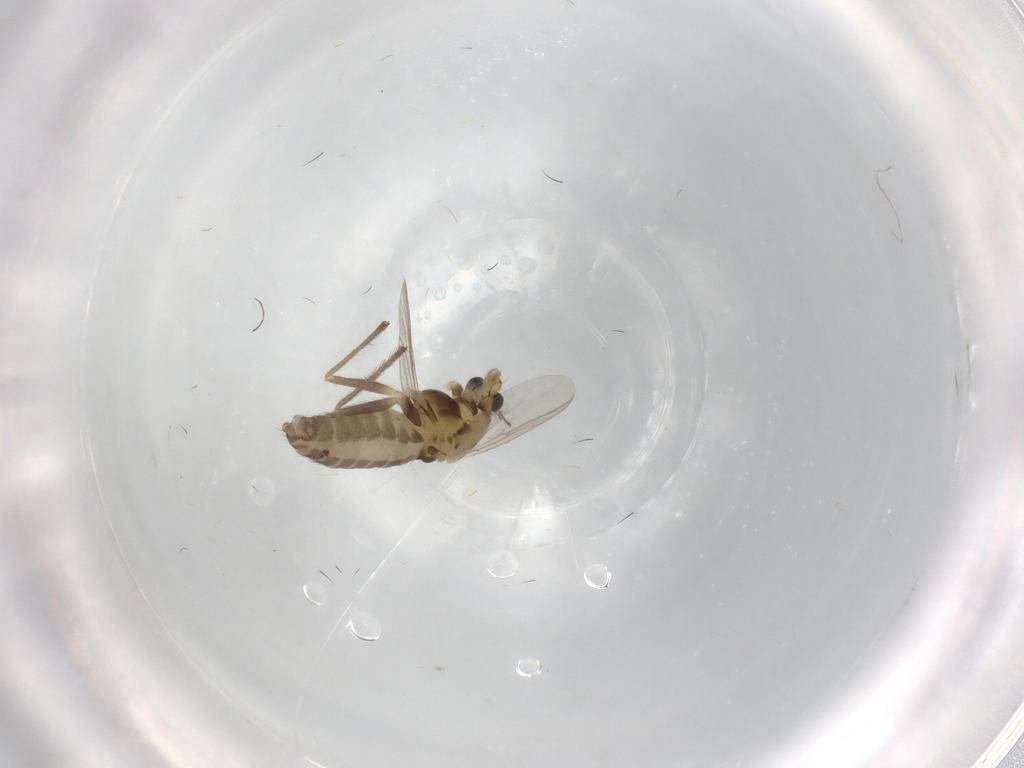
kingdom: Animalia
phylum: Arthropoda
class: Insecta
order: Diptera
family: Chironomidae
